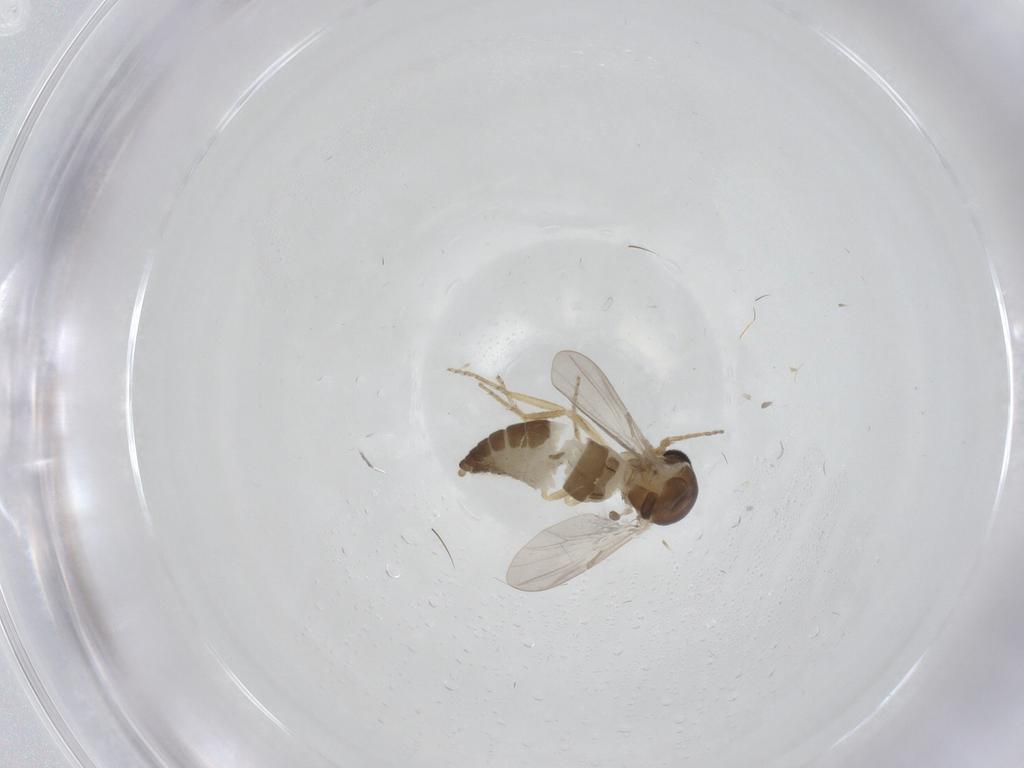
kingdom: Animalia
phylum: Arthropoda
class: Insecta
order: Diptera
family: Ceratopogonidae
